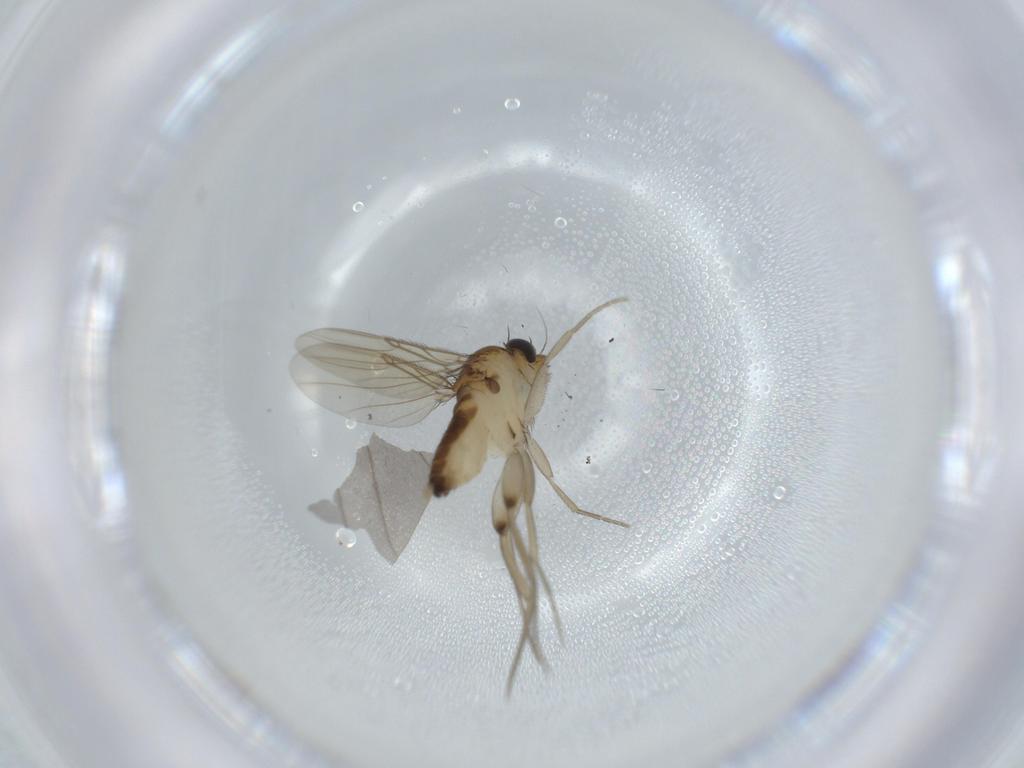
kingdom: Animalia
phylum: Arthropoda
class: Insecta
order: Diptera
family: Phoridae
